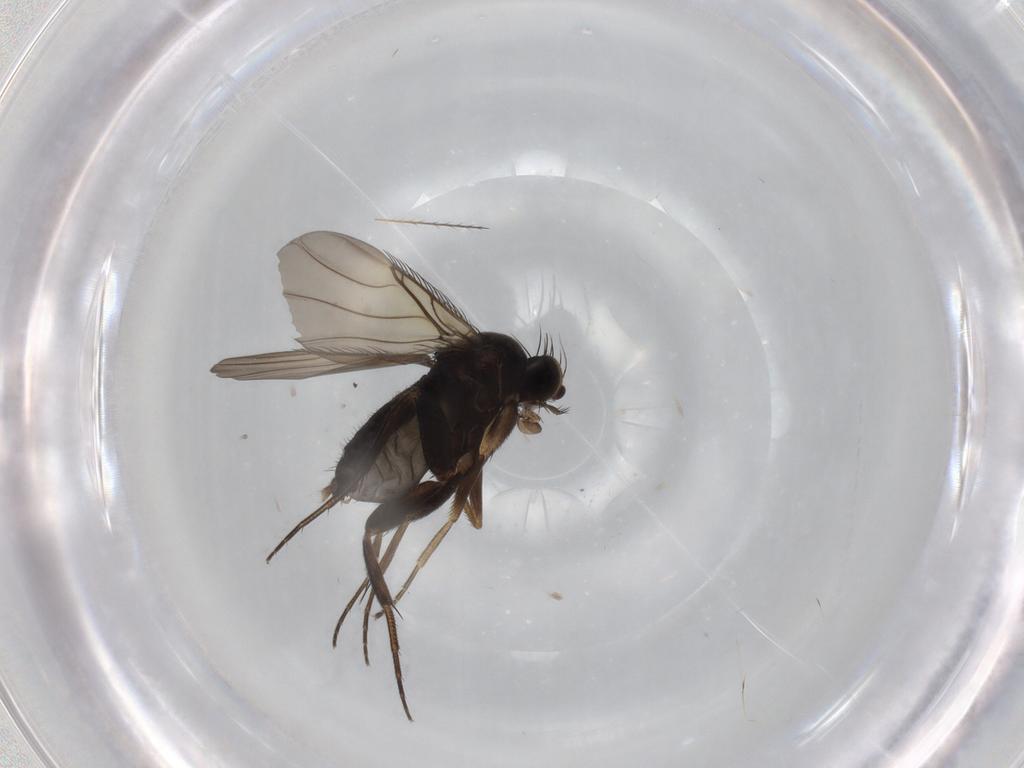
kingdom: Animalia
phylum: Arthropoda
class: Insecta
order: Diptera
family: Phoridae
